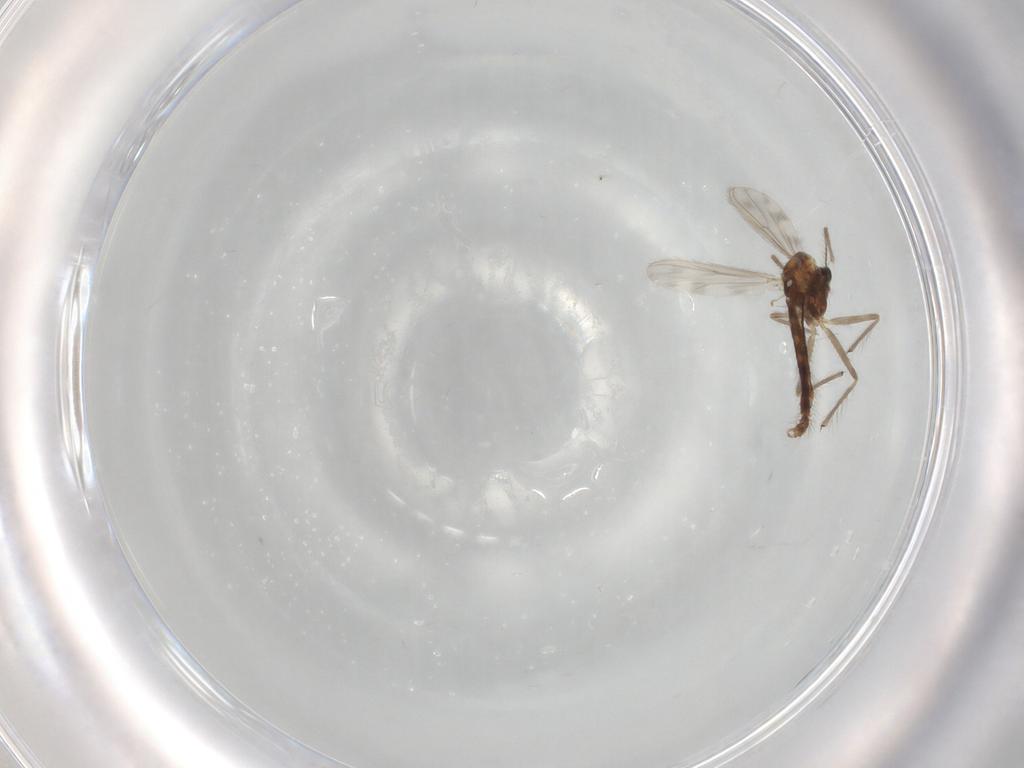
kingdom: Animalia
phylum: Arthropoda
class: Insecta
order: Diptera
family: Chironomidae
